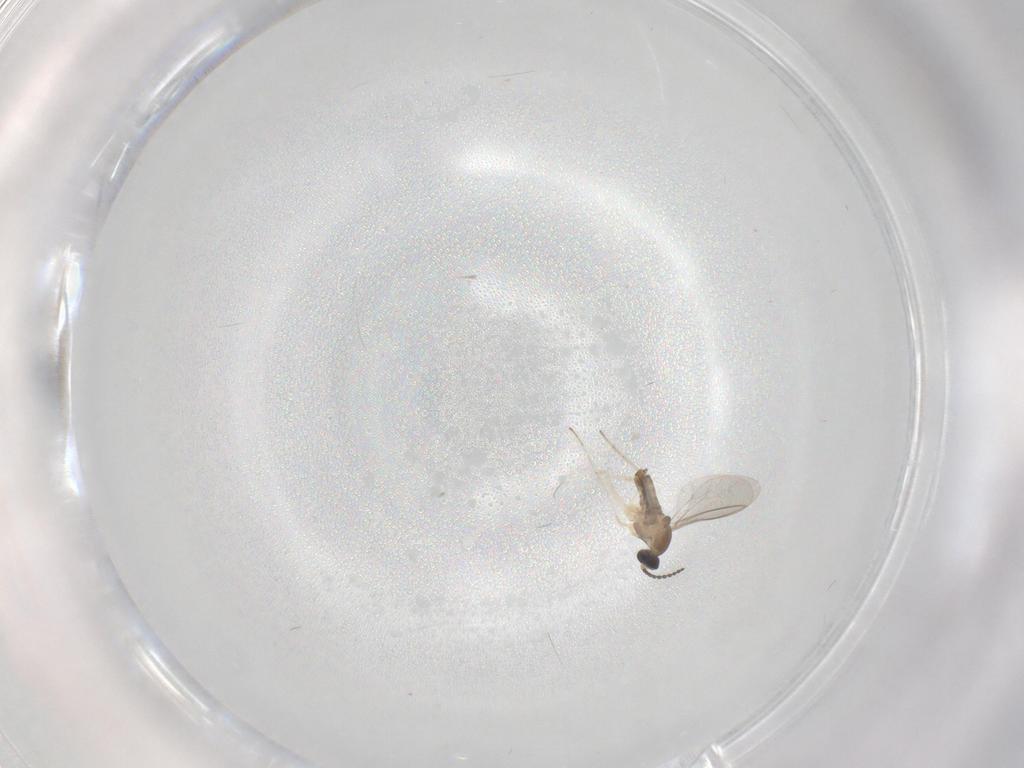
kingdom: Animalia
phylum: Arthropoda
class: Insecta
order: Diptera
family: Cecidomyiidae
